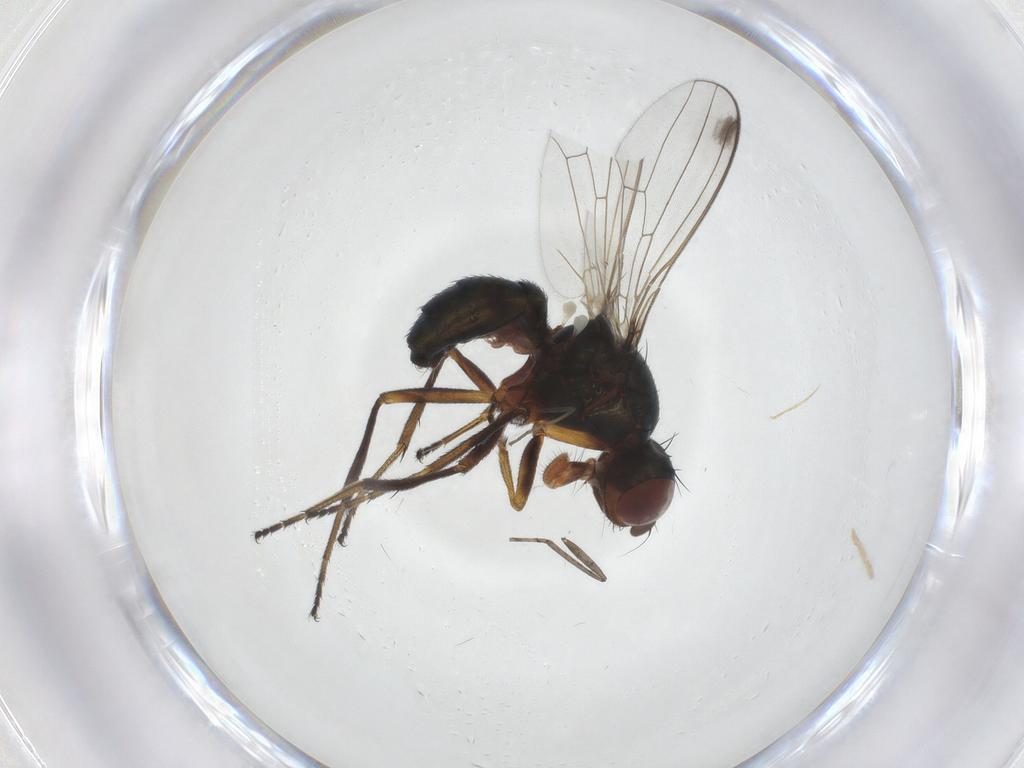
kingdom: Animalia
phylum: Arthropoda
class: Insecta
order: Diptera
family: Sepsidae
